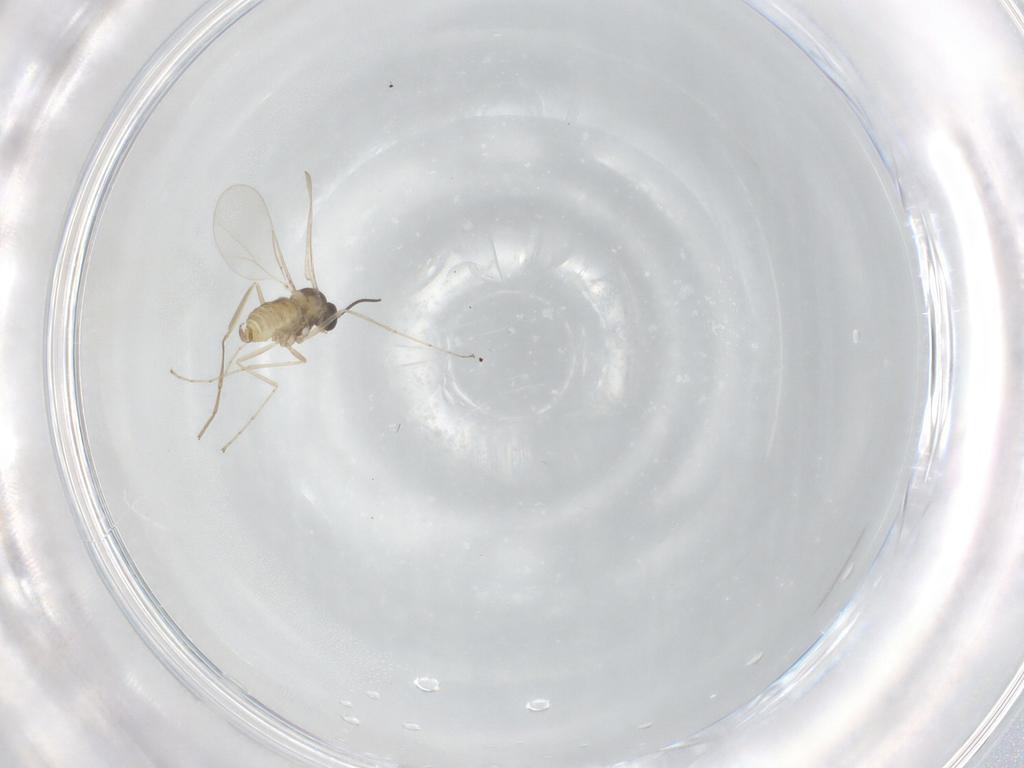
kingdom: Animalia
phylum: Arthropoda
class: Insecta
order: Diptera
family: Cecidomyiidae
